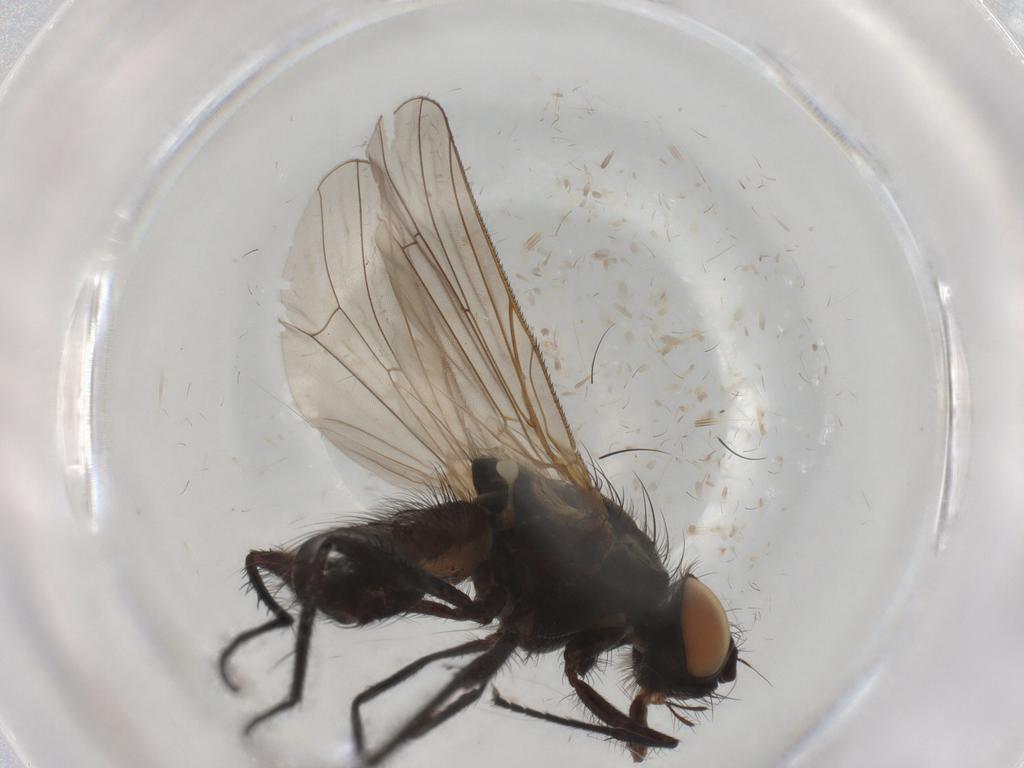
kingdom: Animalia
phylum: Arthropoda
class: Insecta
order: Diptera
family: Anthomyiidae
